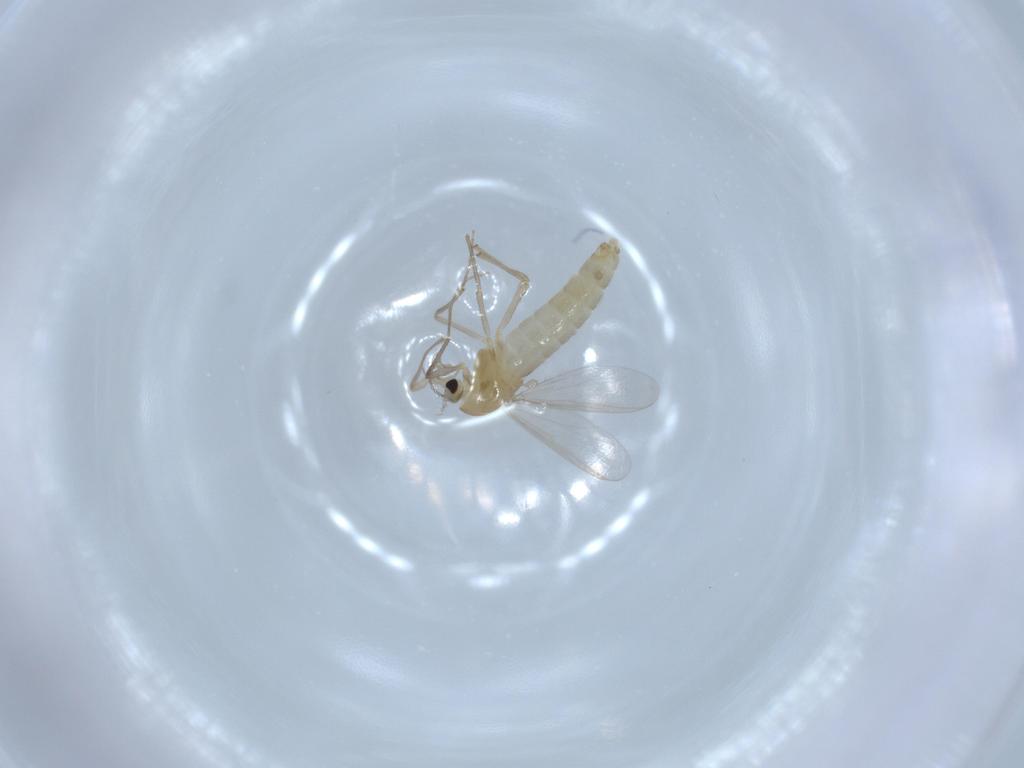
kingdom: Animalia
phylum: Arthropoda
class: Insecta
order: Diptera
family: Chironomidae
